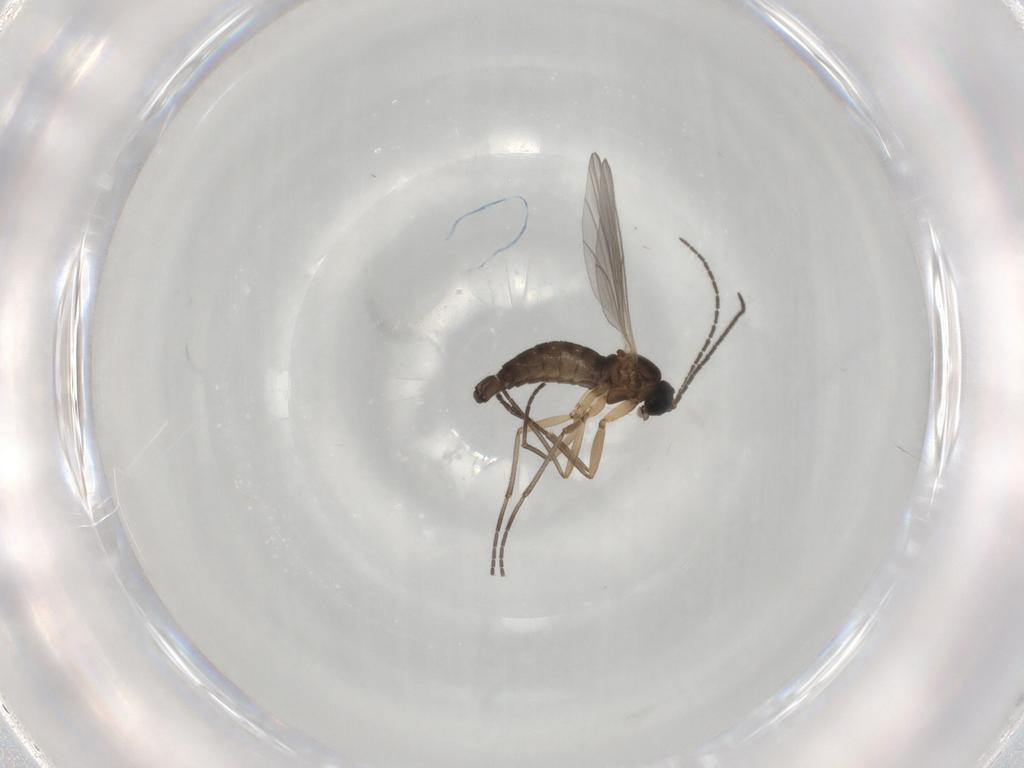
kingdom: Animalia
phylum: Arthropoda
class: Insecta
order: Diptera
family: Sciaridae
